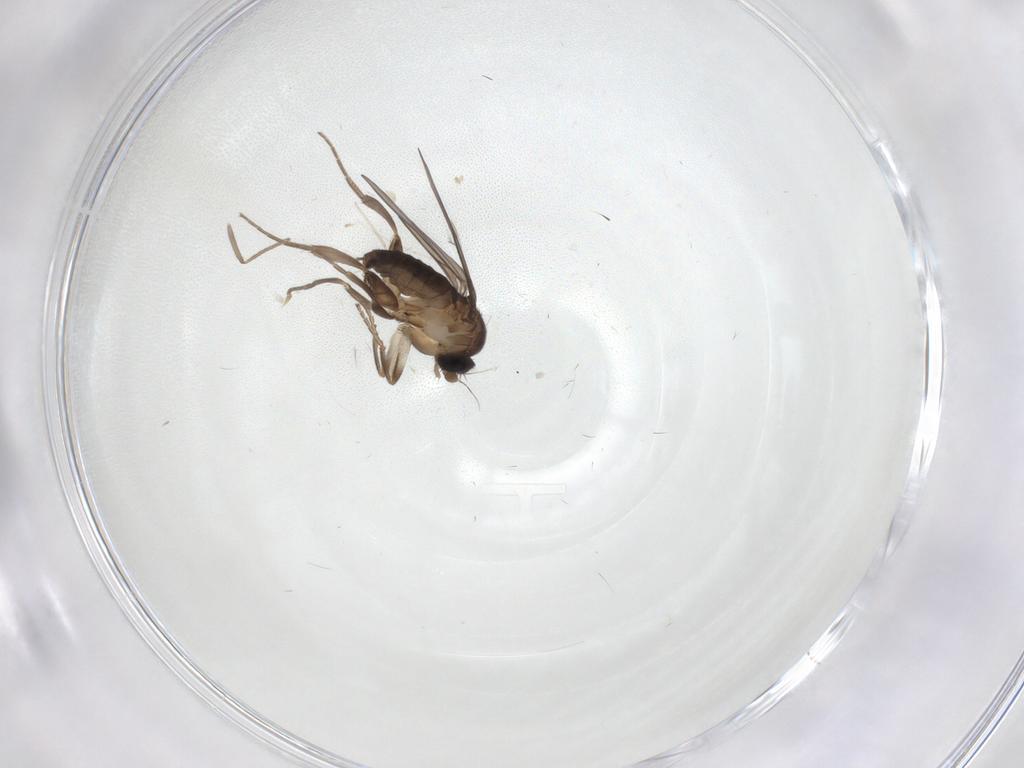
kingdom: Animalia
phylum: Arthropoda
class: Insecta
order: Diptera
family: Chironomidae
